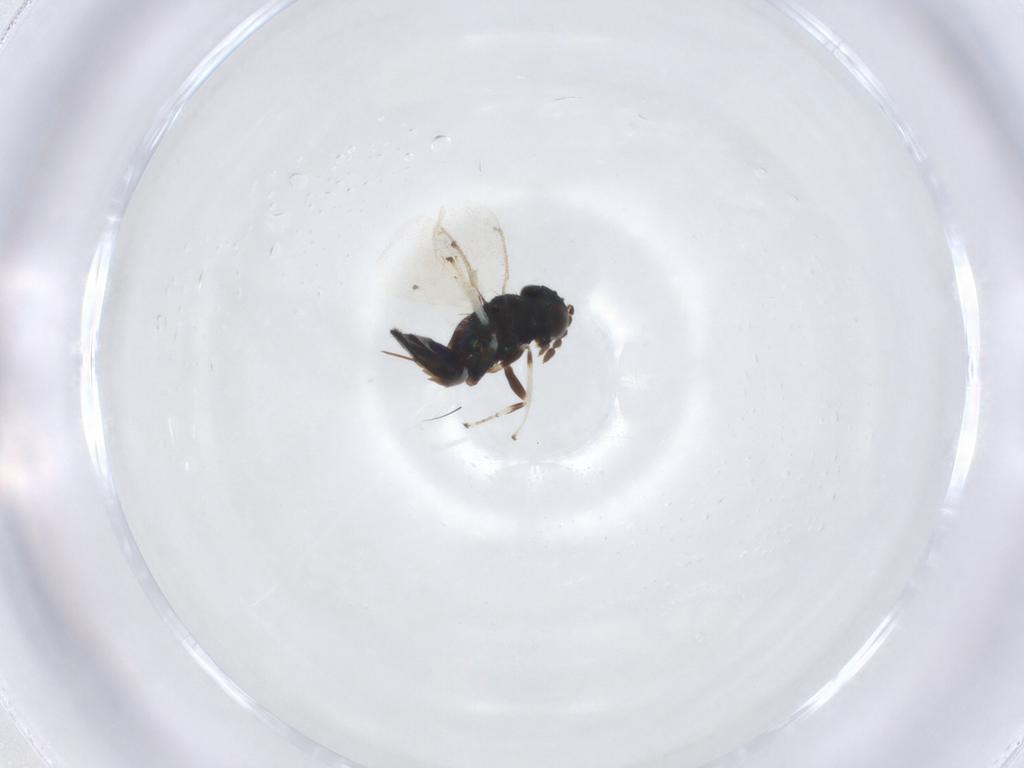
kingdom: Animalia
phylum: Arthropoda
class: Insecta
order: Hymenoptera
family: Eulophidae
